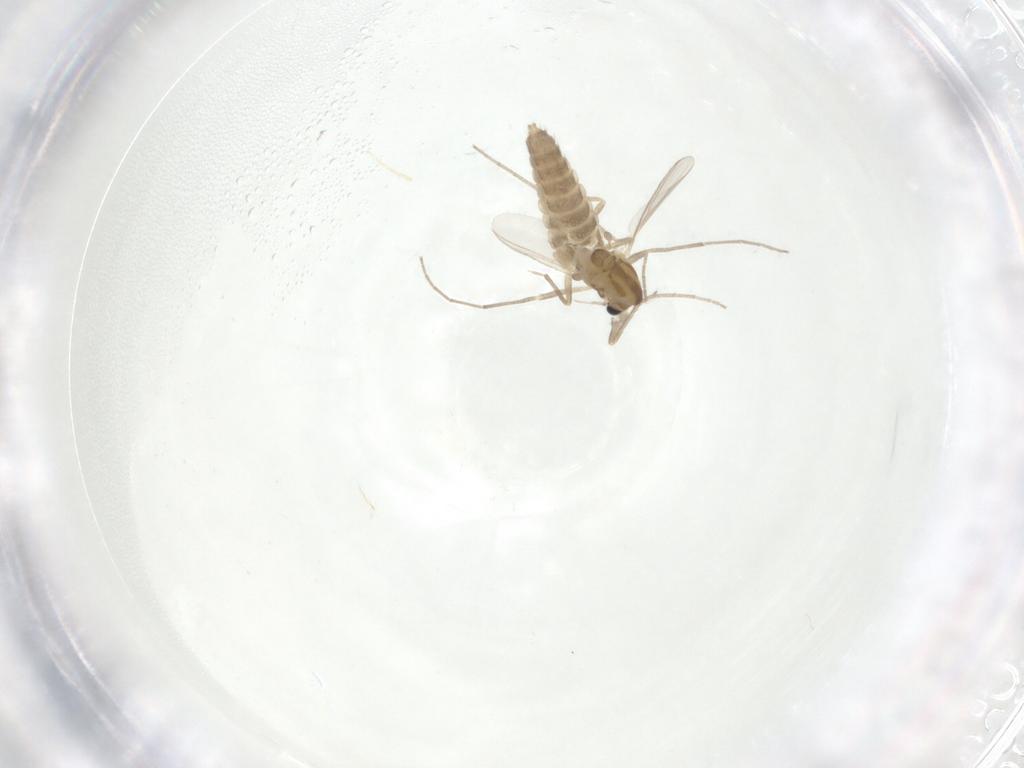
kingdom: Animalia
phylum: Arthropoda
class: Insecta
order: Diptera
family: Chironomidae
